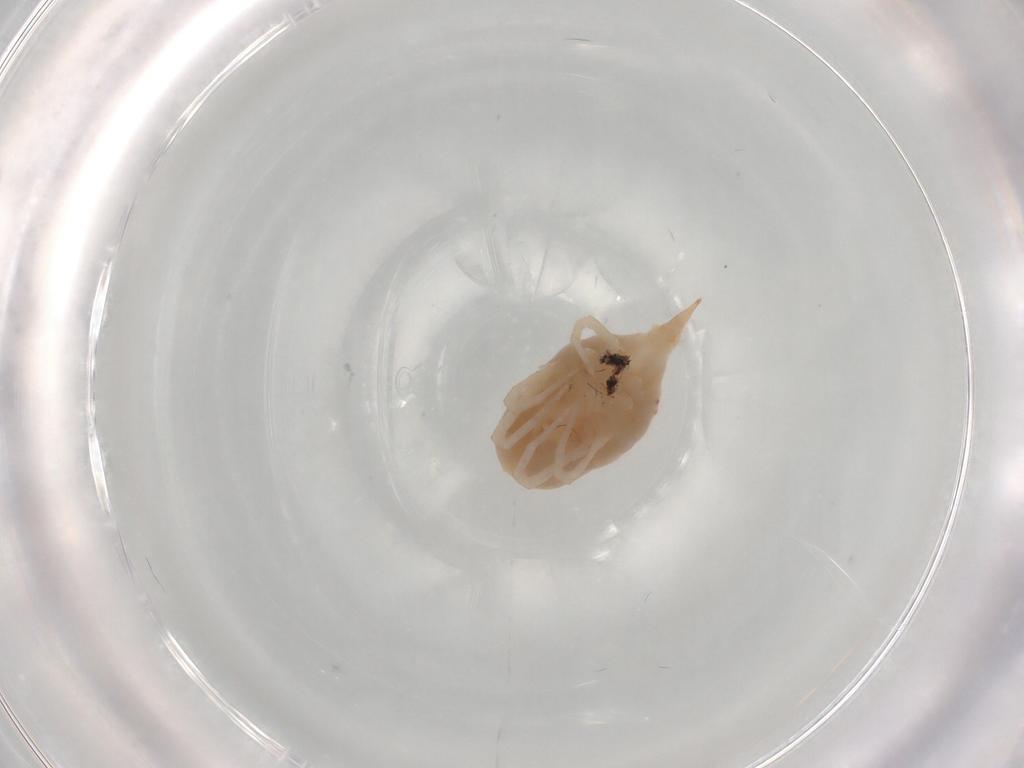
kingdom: Animalia
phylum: Arthropoda
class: Arachnida
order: Trombidiformes
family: Eupodidae
